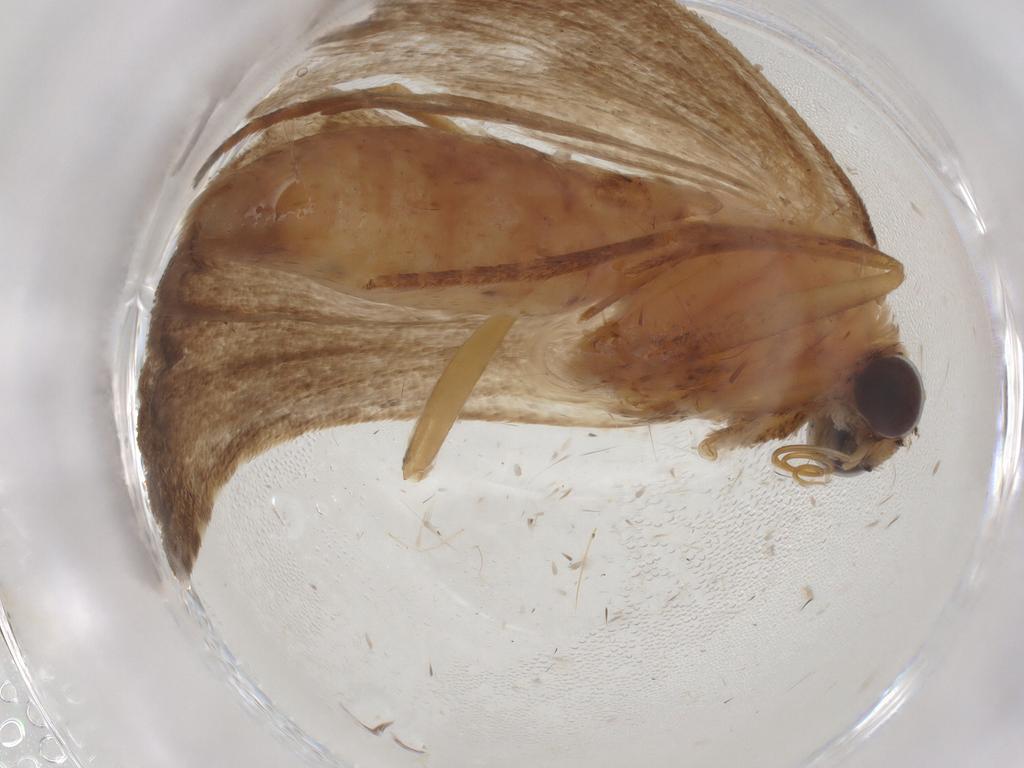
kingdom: Animalia
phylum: Arthropoda
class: Insecta
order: Lepidoptera
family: Erebidae
